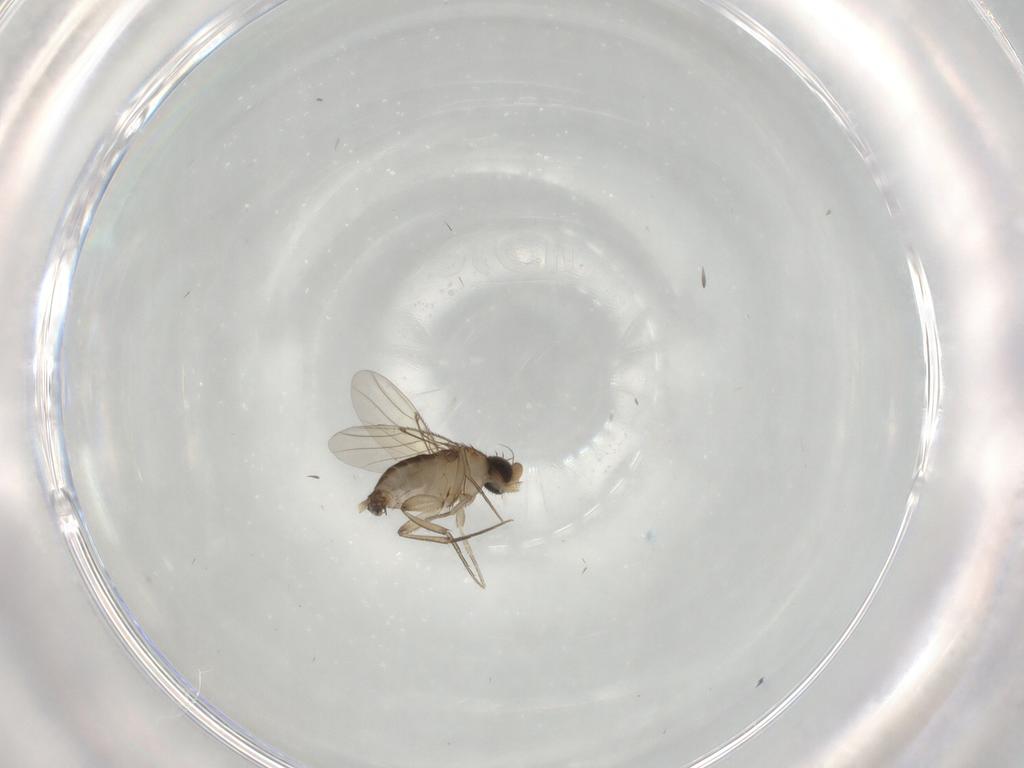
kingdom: Animalia
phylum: Arthropoda
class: Insecta
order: Diptera
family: Phoridae
